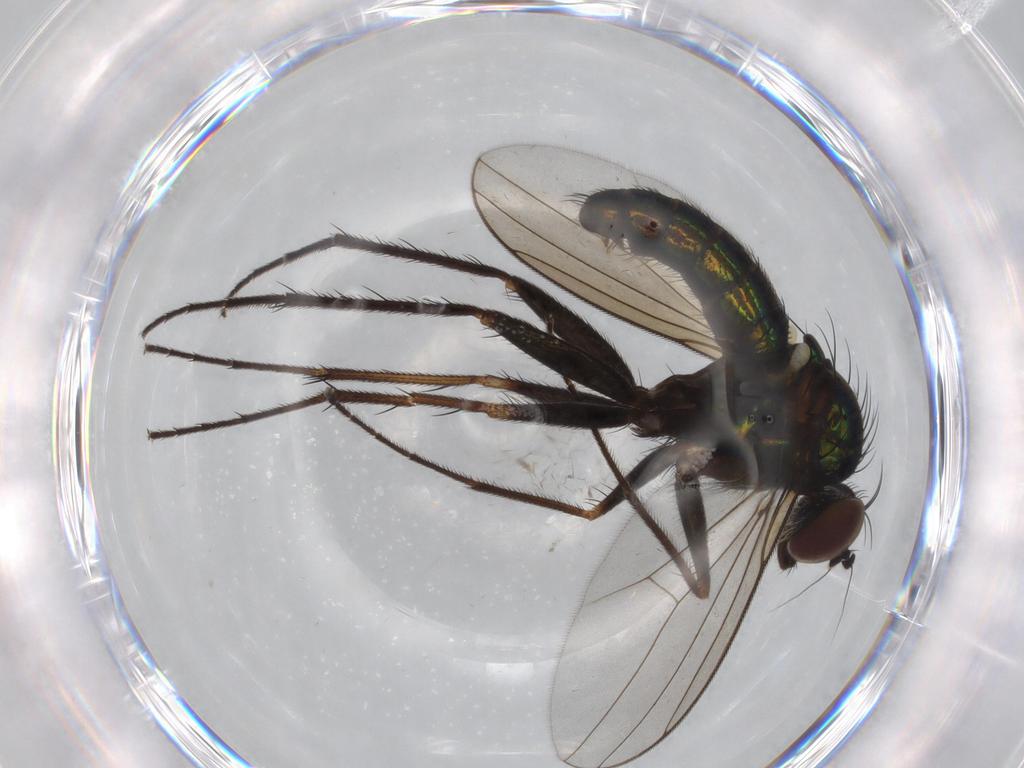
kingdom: Animalia
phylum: Arthropoda
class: Insecta
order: Diptera
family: Dolichopodidae
